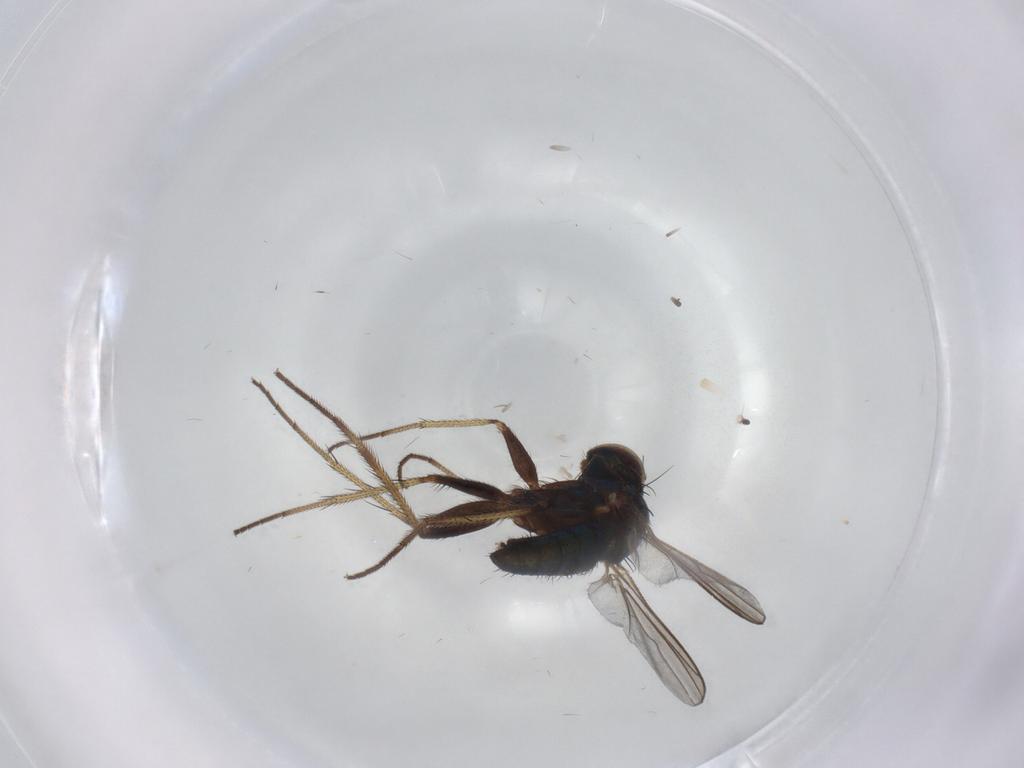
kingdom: Animalia
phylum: Arthropoda
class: Insecta
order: Diptera
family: Dolichopodidae
